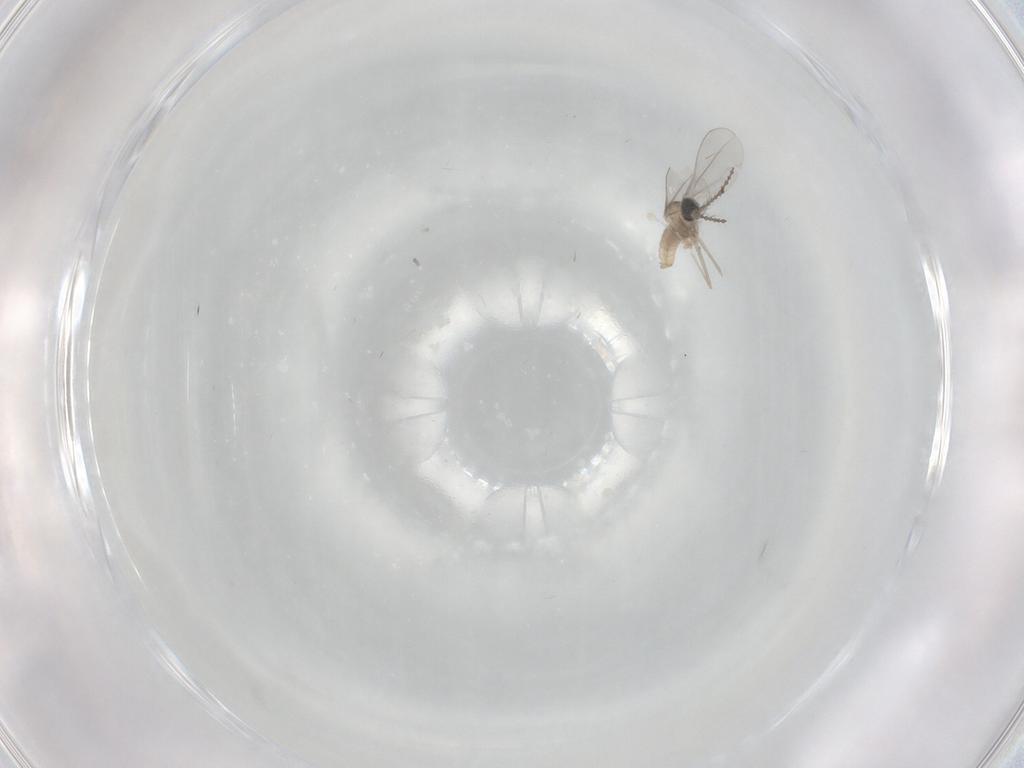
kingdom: Animalia
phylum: Arthropoda
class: Insecta
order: Diptera
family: Cecidomyiidae
